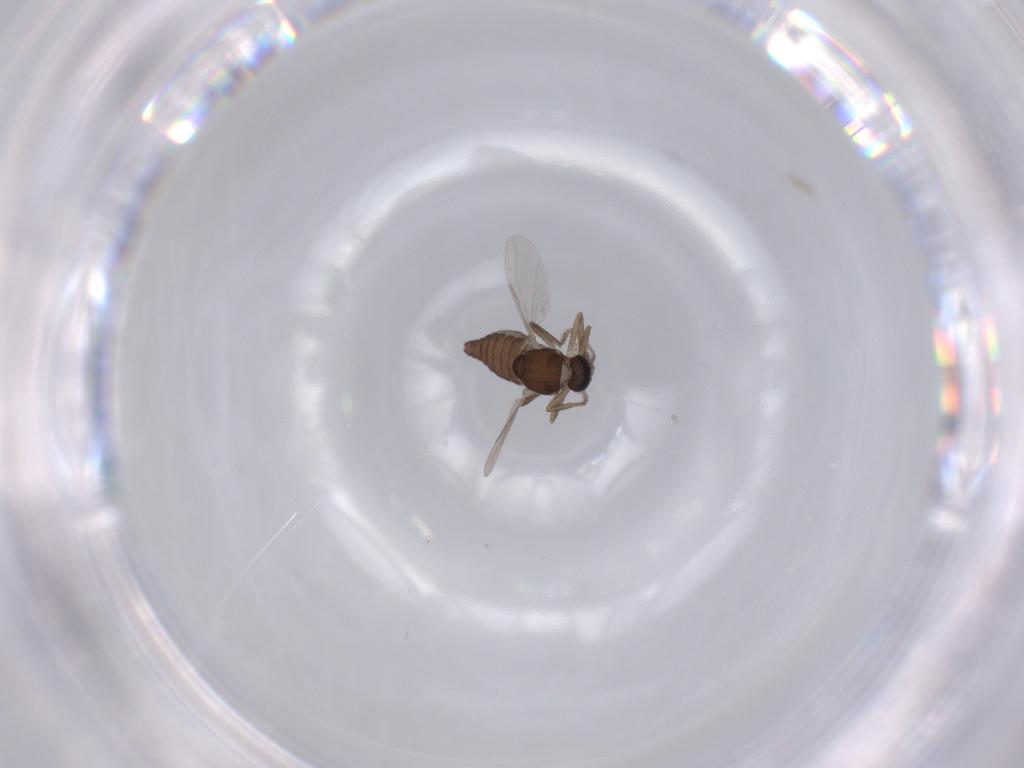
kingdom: Animalia
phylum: Arthropoda
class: Insecta
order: Diptera
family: Ceratopogonidae
